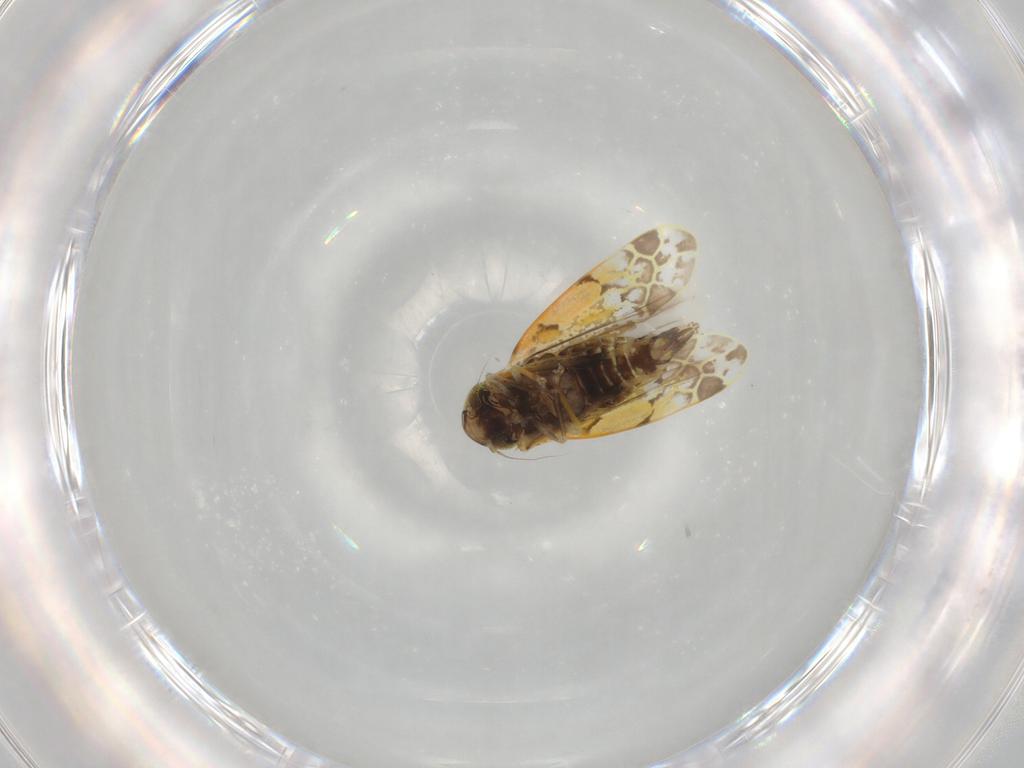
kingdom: Animalia
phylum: Arthropoda
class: Insecta
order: Hemiptera
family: Cicadellidae
